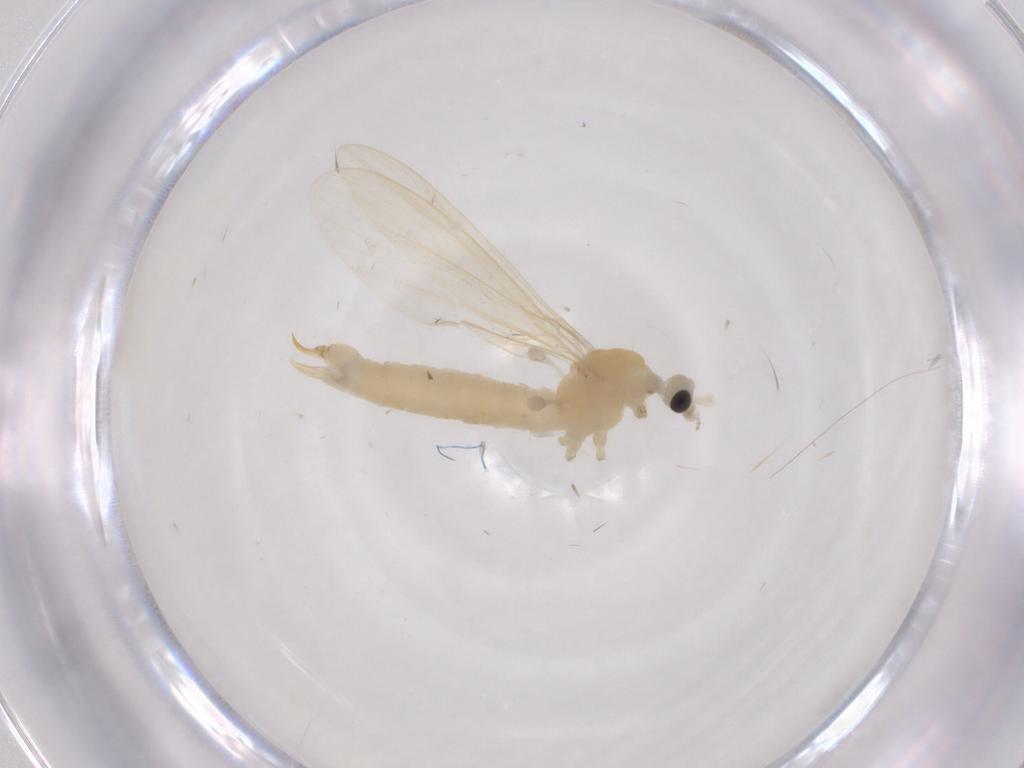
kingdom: Animalia
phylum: Arthropoda
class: Insecta
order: Diptera
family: Limoniidae
